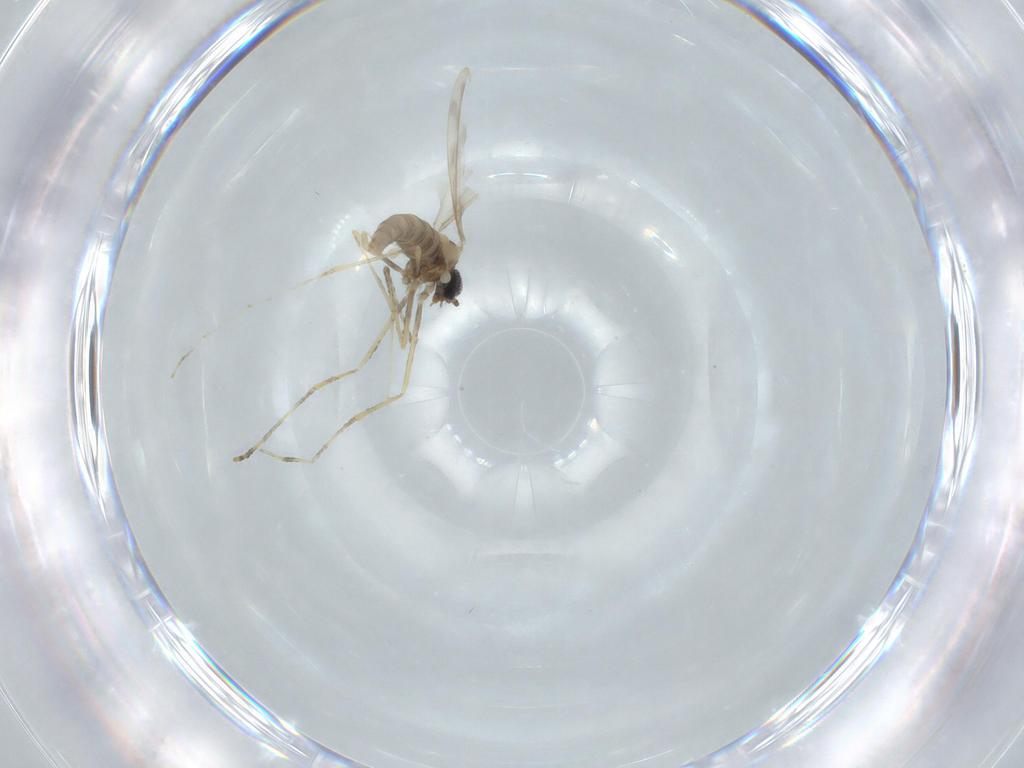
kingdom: Animalia
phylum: Arthropoda
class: Insecta
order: Diptera
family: Cecidomyiidae
